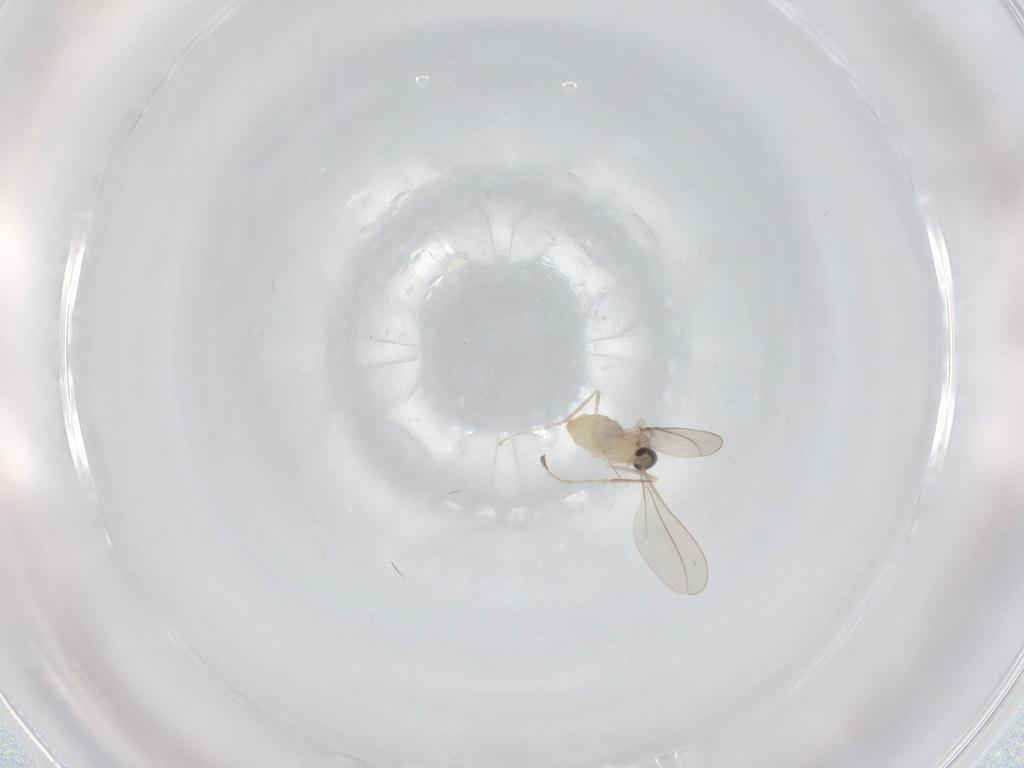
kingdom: Animalia
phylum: Arthropoda
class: Insecta
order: Diptera
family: Cecidomyiidae
